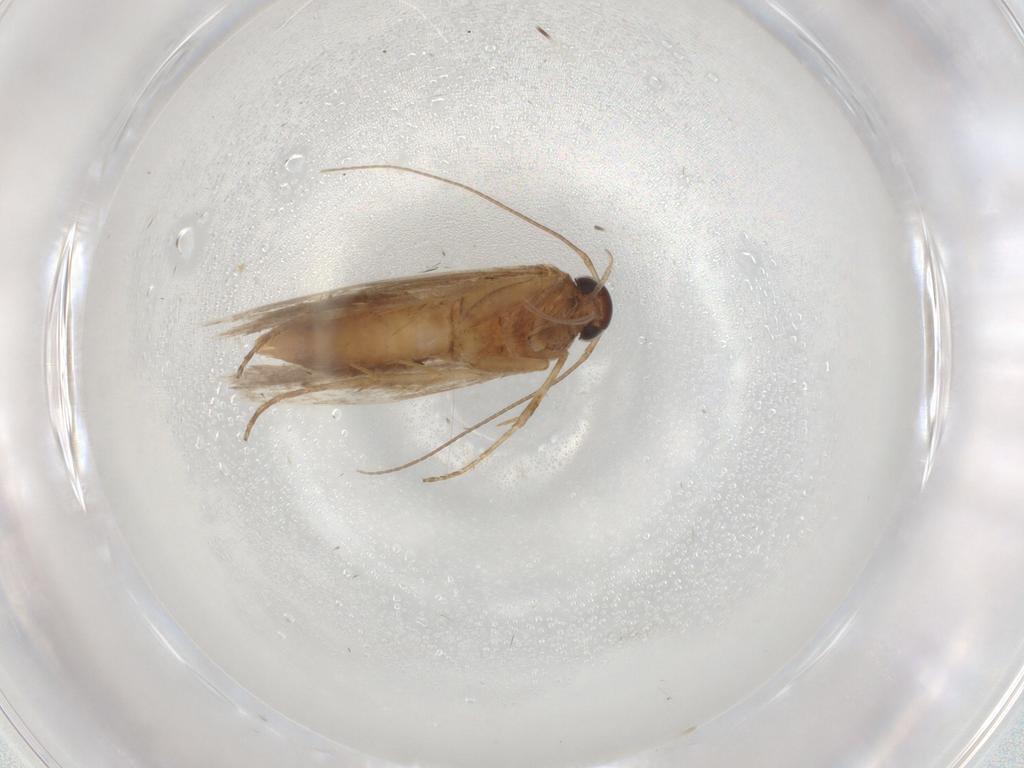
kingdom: Animalia
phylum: Arthropoda
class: Insecta
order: Lepidoptera
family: Gelechiidae
